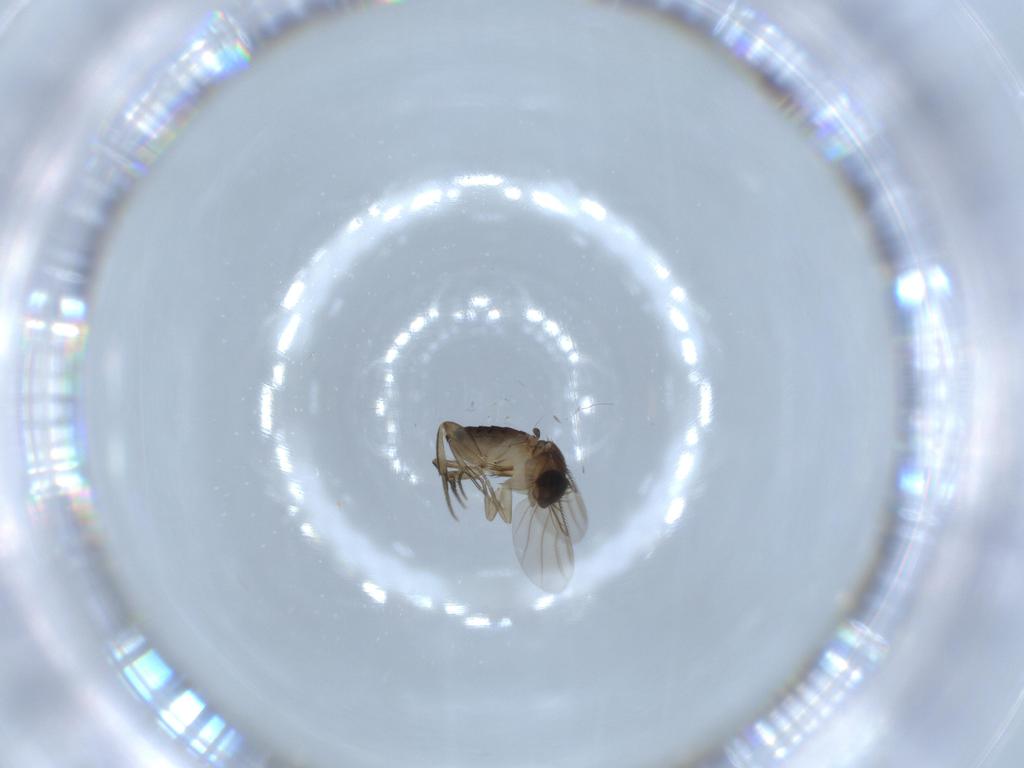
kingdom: Animalia
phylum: Arthropoda
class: Insecta
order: Diptera
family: Phoridae
